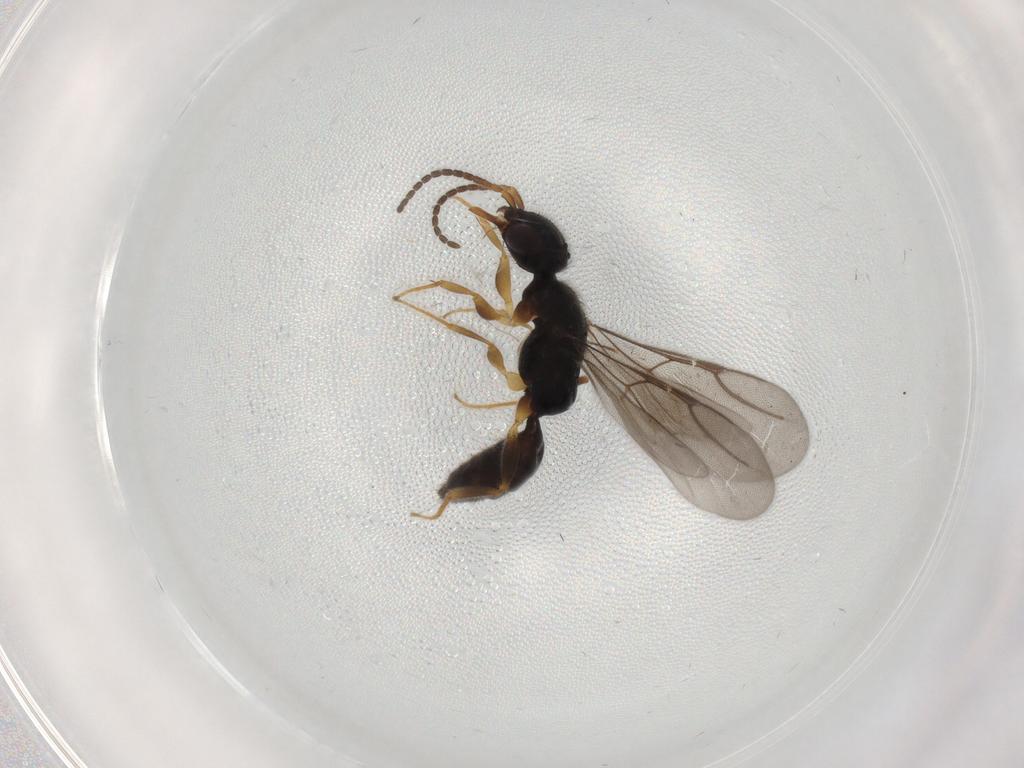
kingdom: Animalia
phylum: Arthropoda
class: Insecta
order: Hymenoptera
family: Bethylidae
